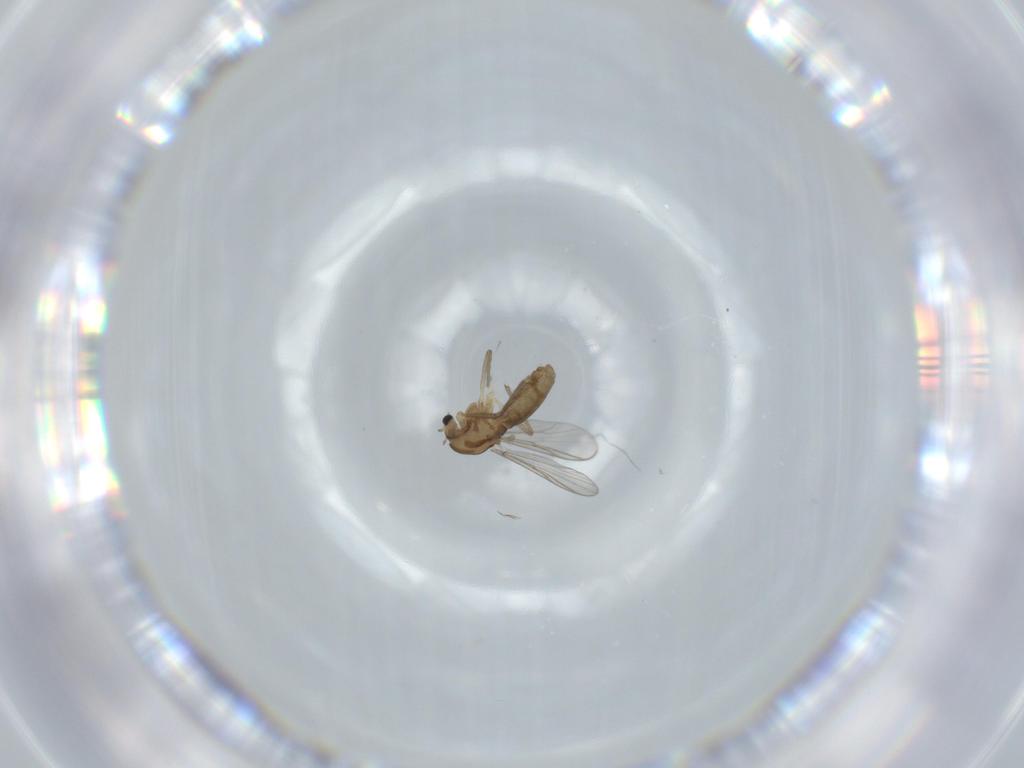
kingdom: Animalia
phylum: Arthropoda
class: Insecta
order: Diptera
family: Chironomidae
